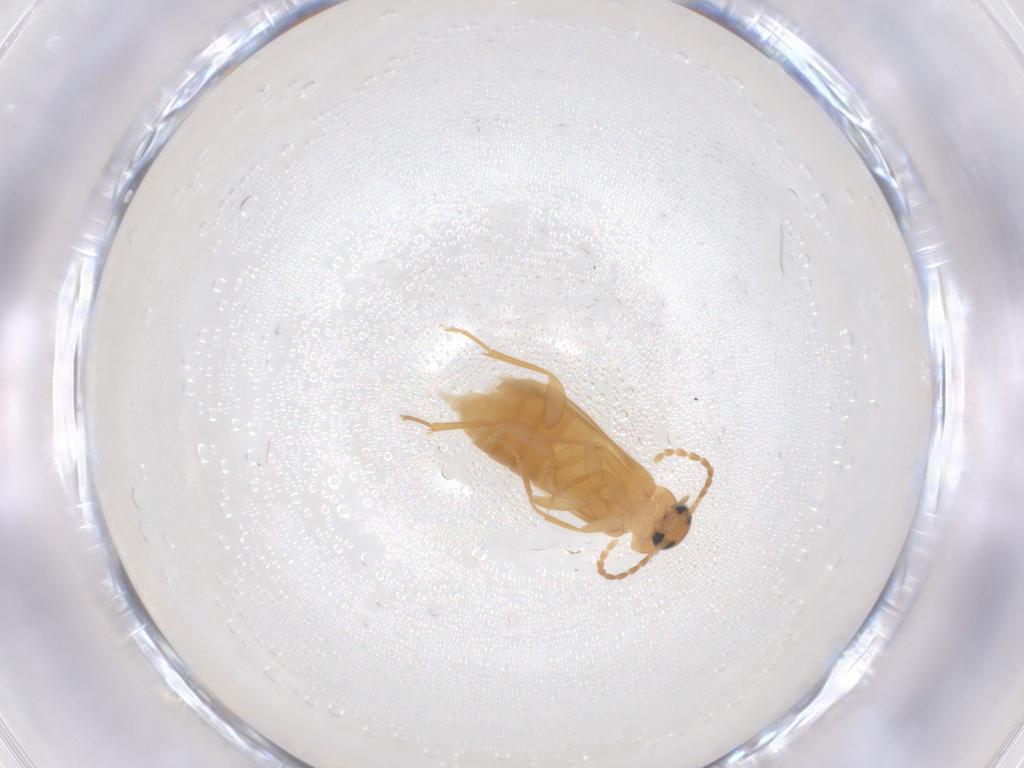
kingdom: Animalia
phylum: Arthropoda
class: Insecta
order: Coleoptera
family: Scraptiidae
